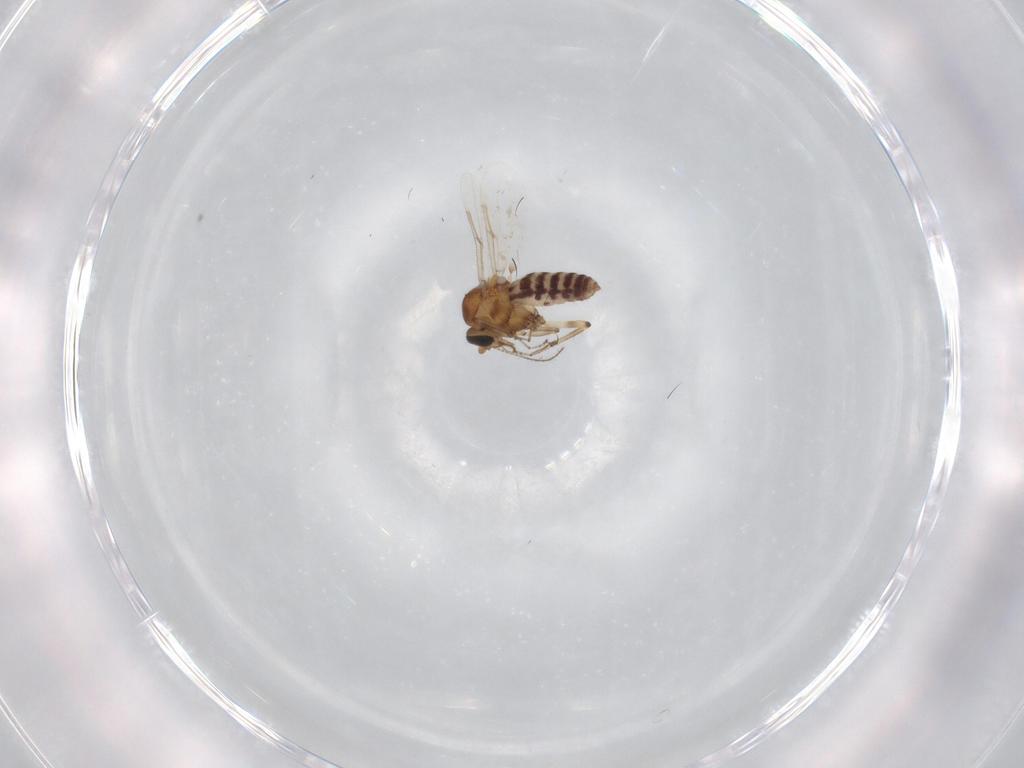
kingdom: Animalia
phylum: Arthropoda
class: Insecta
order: Diptera
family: Ceratopogonidae
